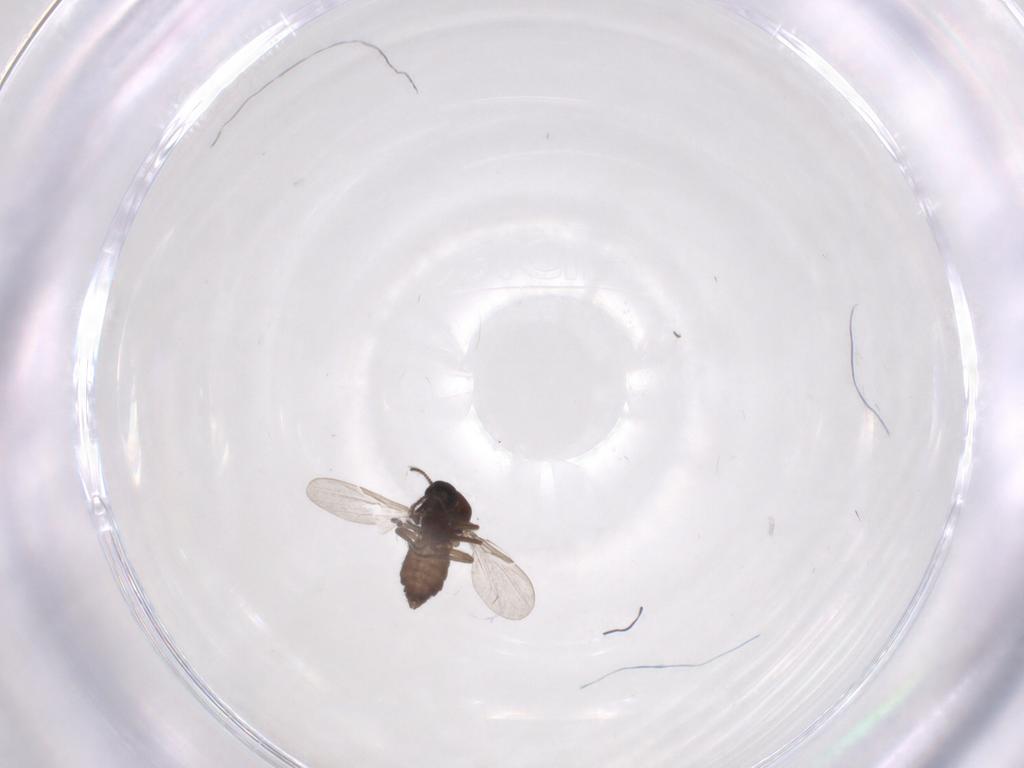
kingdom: Animalia
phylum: Arthropoda
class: Insecta
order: Diptera
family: Ceratopogonidae
